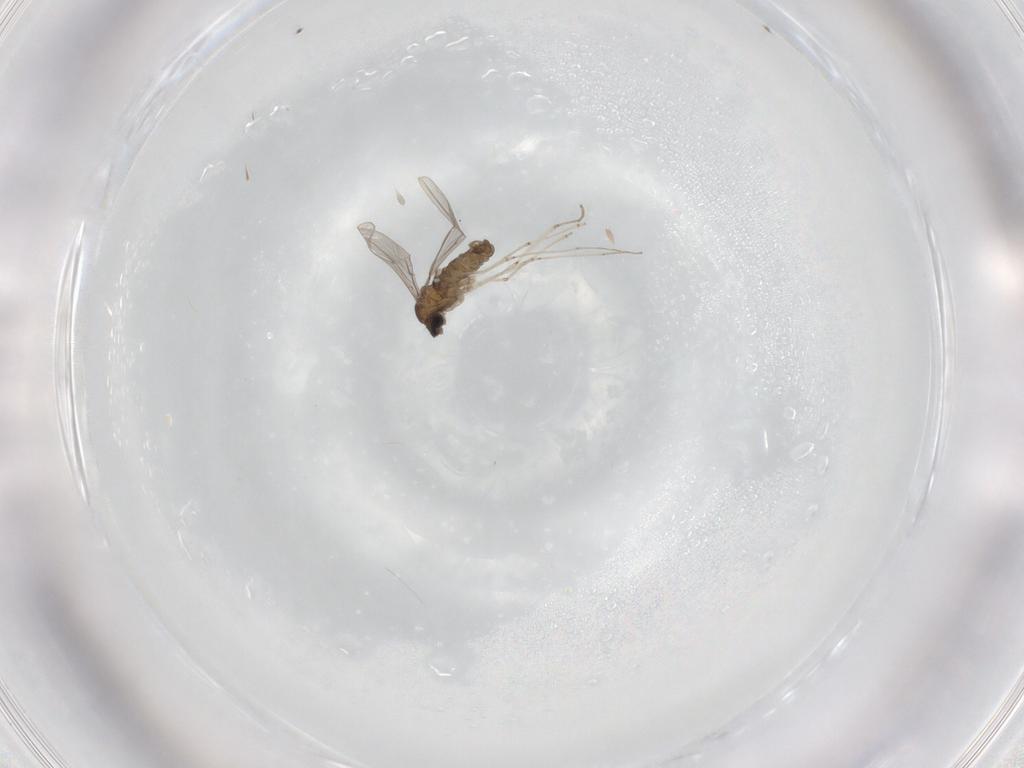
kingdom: Animalia
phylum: Arthropoda
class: Insecta
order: Diptera
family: Cecidomyiidae
